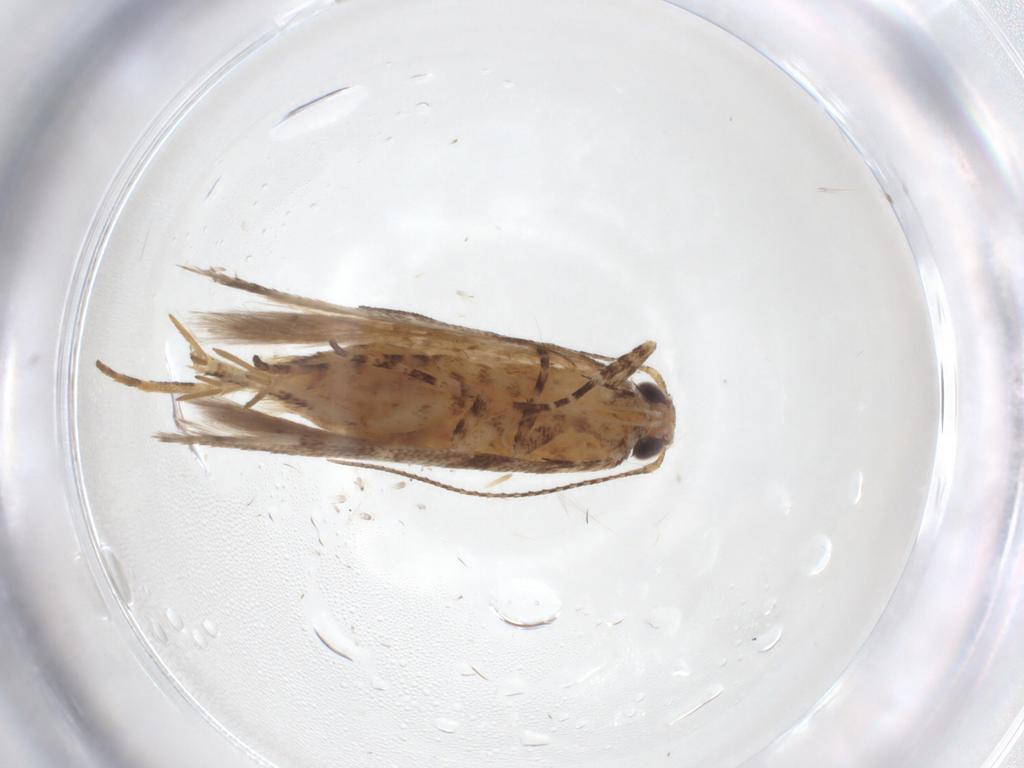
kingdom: Animalia
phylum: Arthropoda
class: Insecta
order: Lepidoptera
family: Gelechiidae
